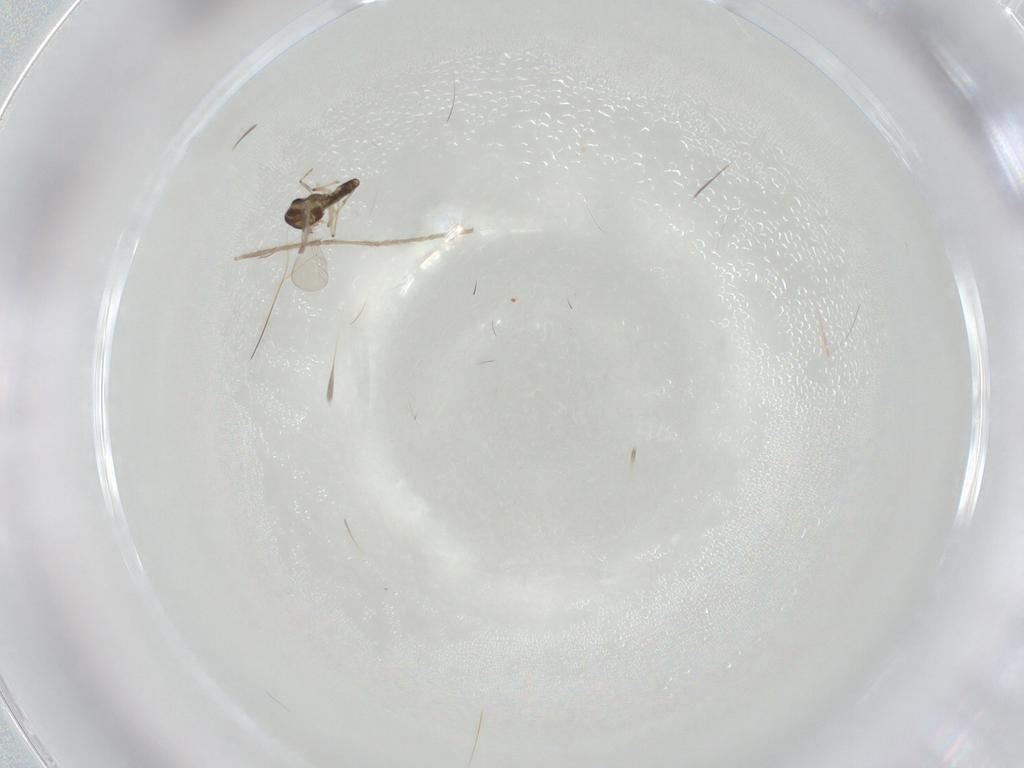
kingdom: Animalia
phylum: Arthropoda
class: Insecta
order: Diptera
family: Chironomidae
